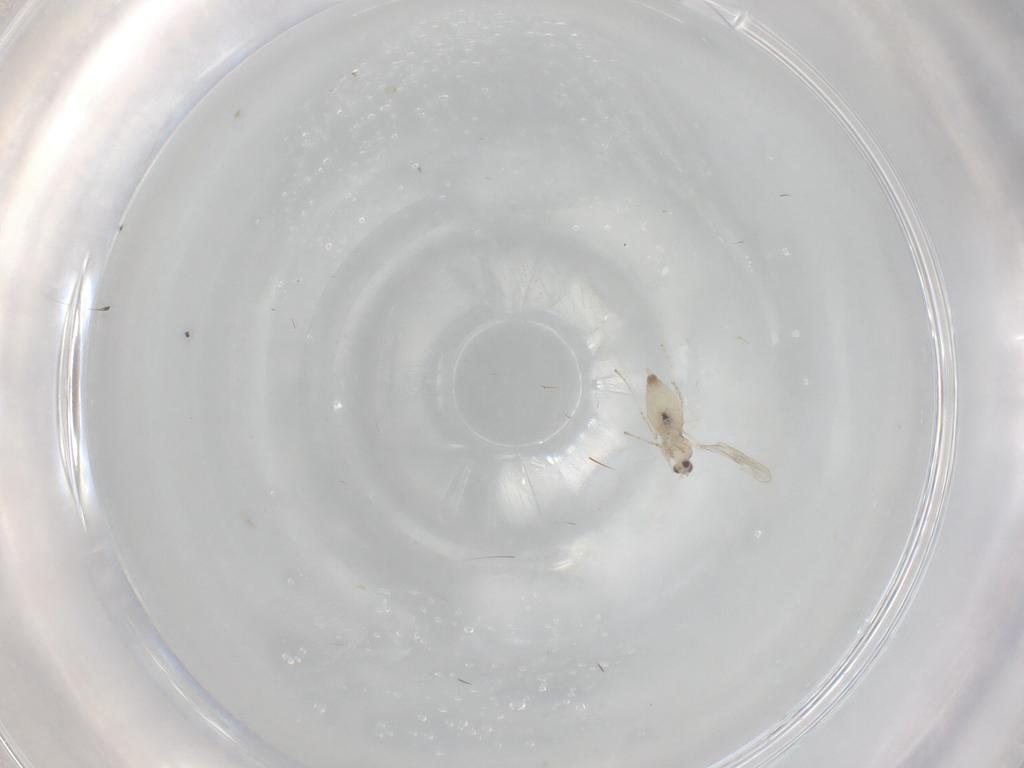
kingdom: Animalia
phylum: Arthropoda
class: Insecta
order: Diptera
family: Cecidomyiidae
